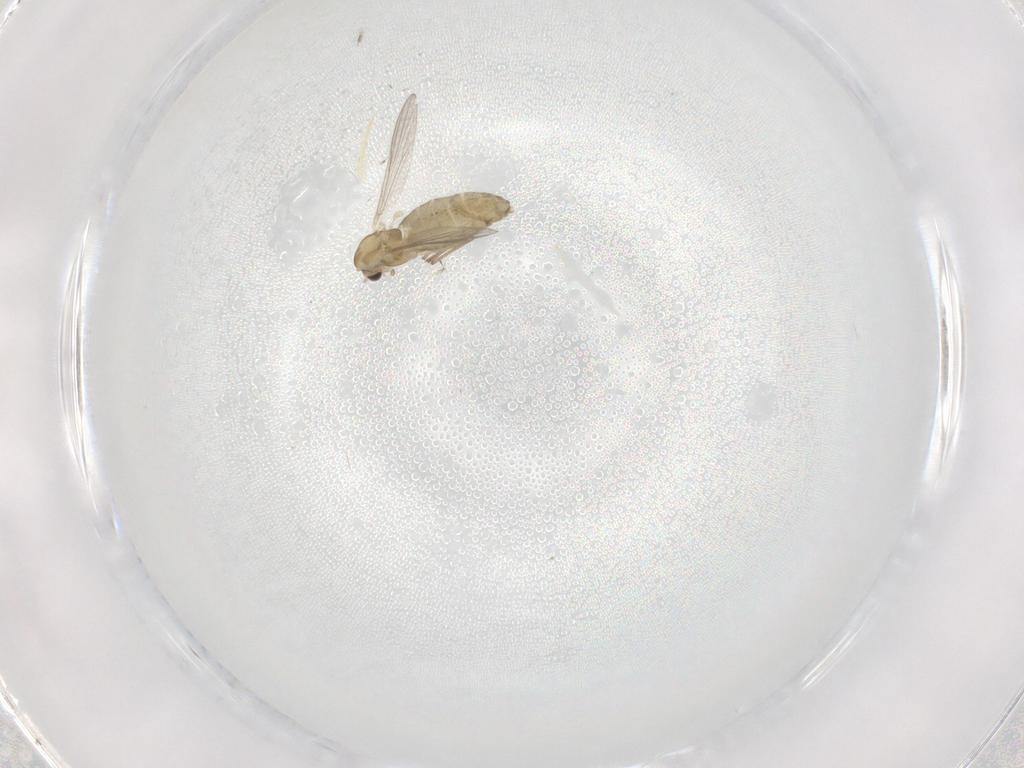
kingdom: Animalia
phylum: Arthropoda
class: Insecta
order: Diptera
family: Chironomidae
